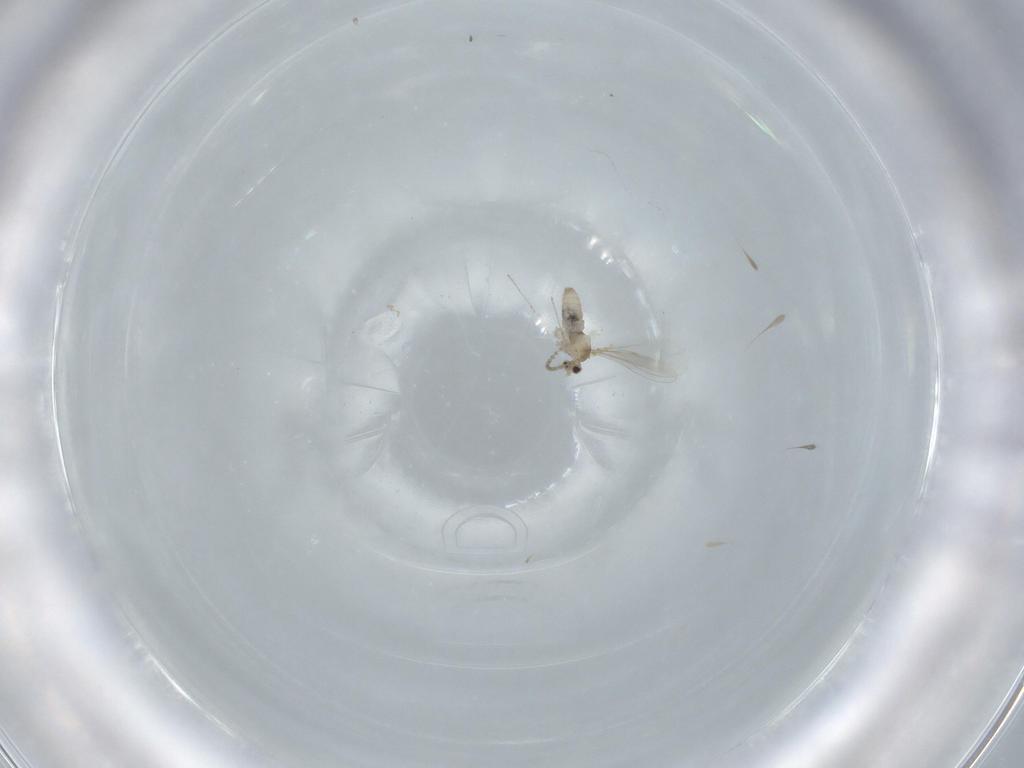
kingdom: Animalia
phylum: Arthropoda
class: Insecta
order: Diptera
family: Cecidomyiidae
